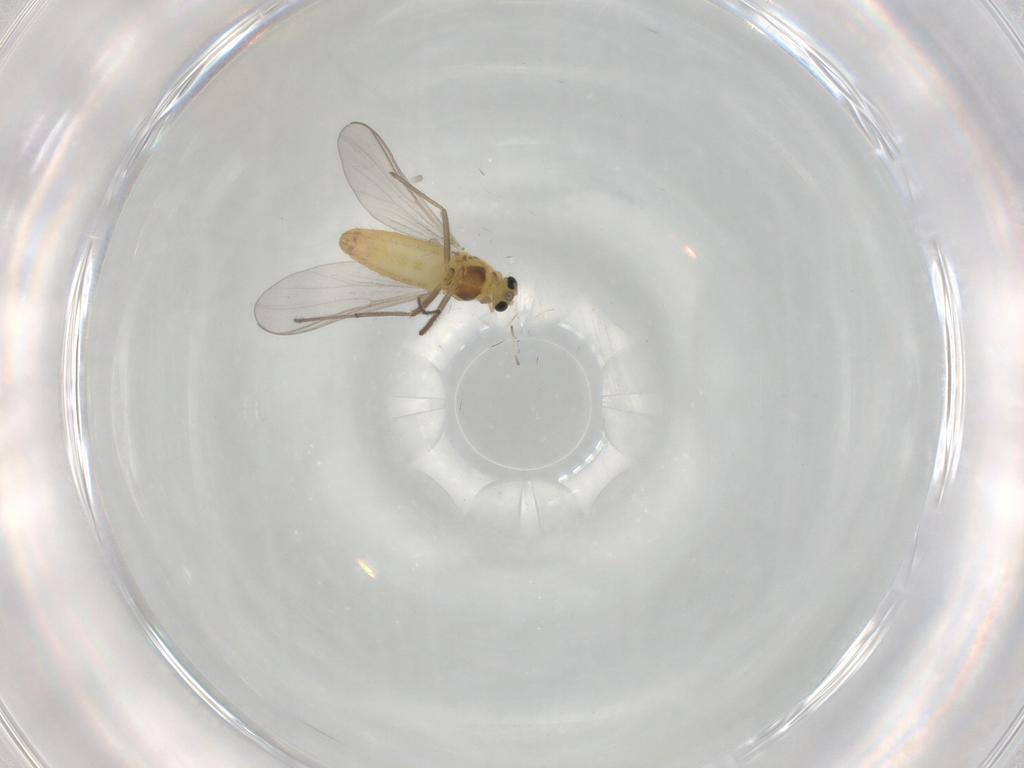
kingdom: Animalia
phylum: Arthropoda
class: Insecta
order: Diptera
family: Chironomidae
